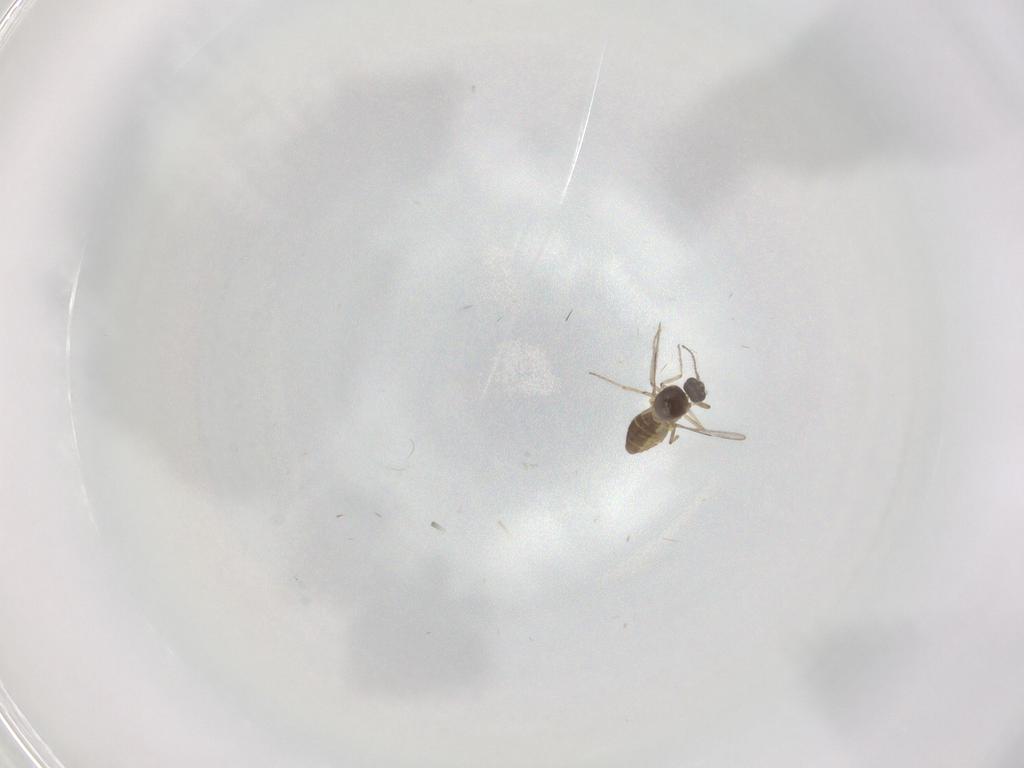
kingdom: Animalia
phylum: Arthropoda
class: Insecta
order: Diptera
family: Ceratopogonidae
